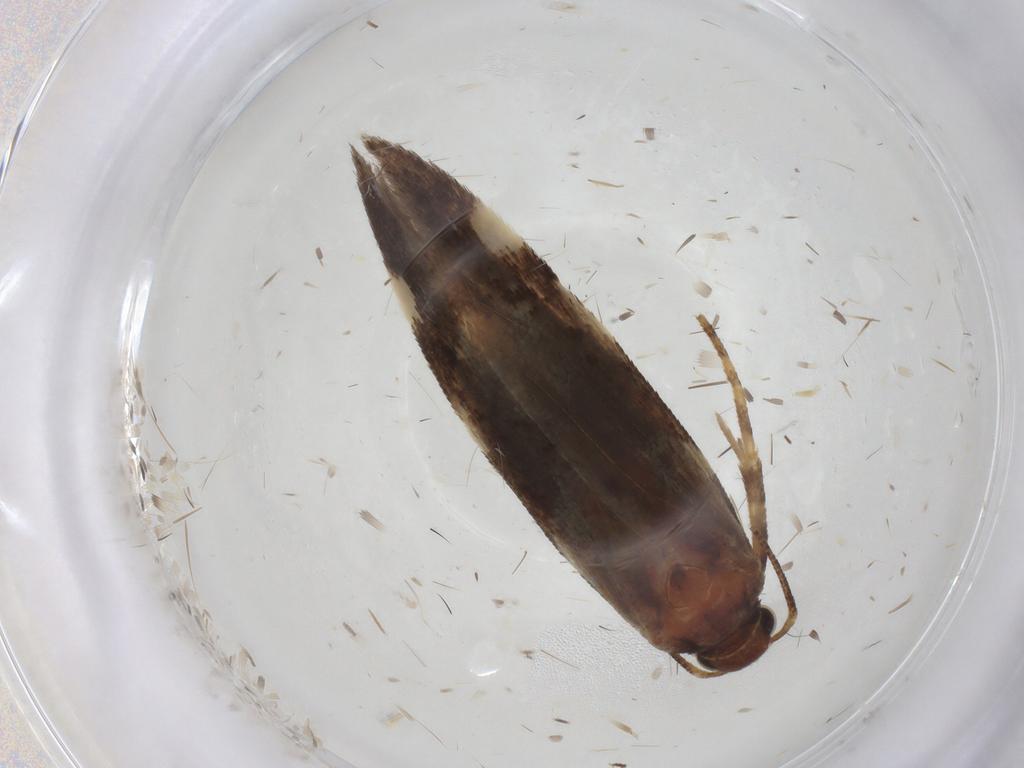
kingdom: Animalia
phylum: Arthropoda
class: Insecta
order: Lepidoptera
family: Gelechiidae
